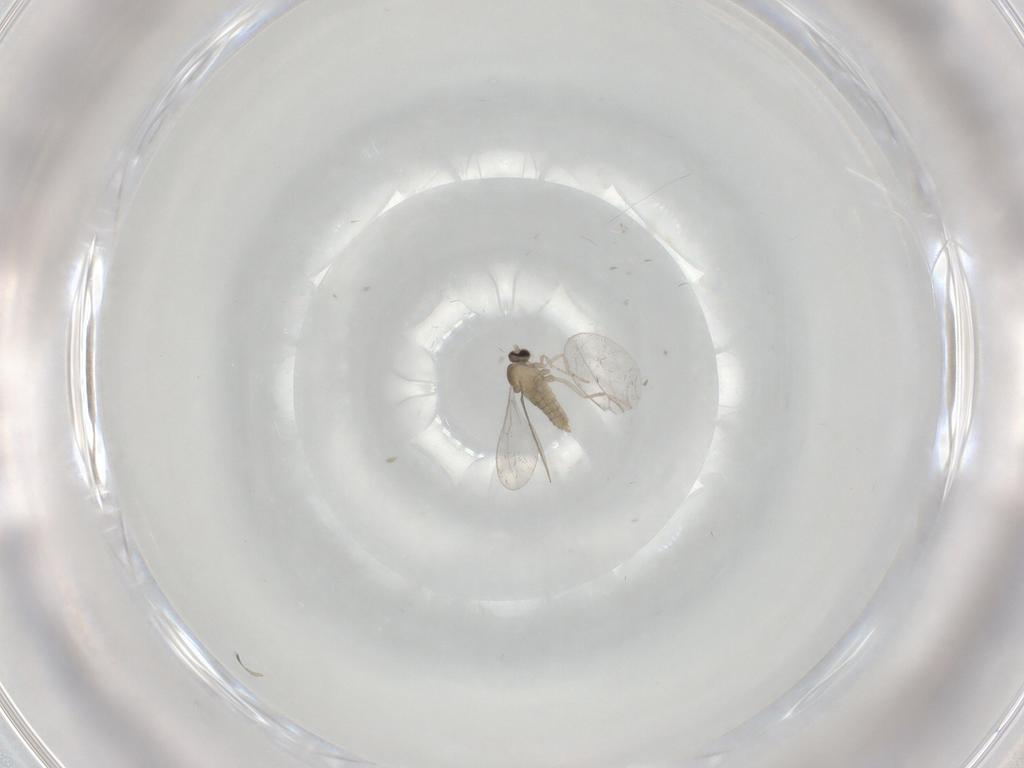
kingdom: Animalia
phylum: Arthropoda
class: Insecta
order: Diptera
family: Cecidomyiidae
